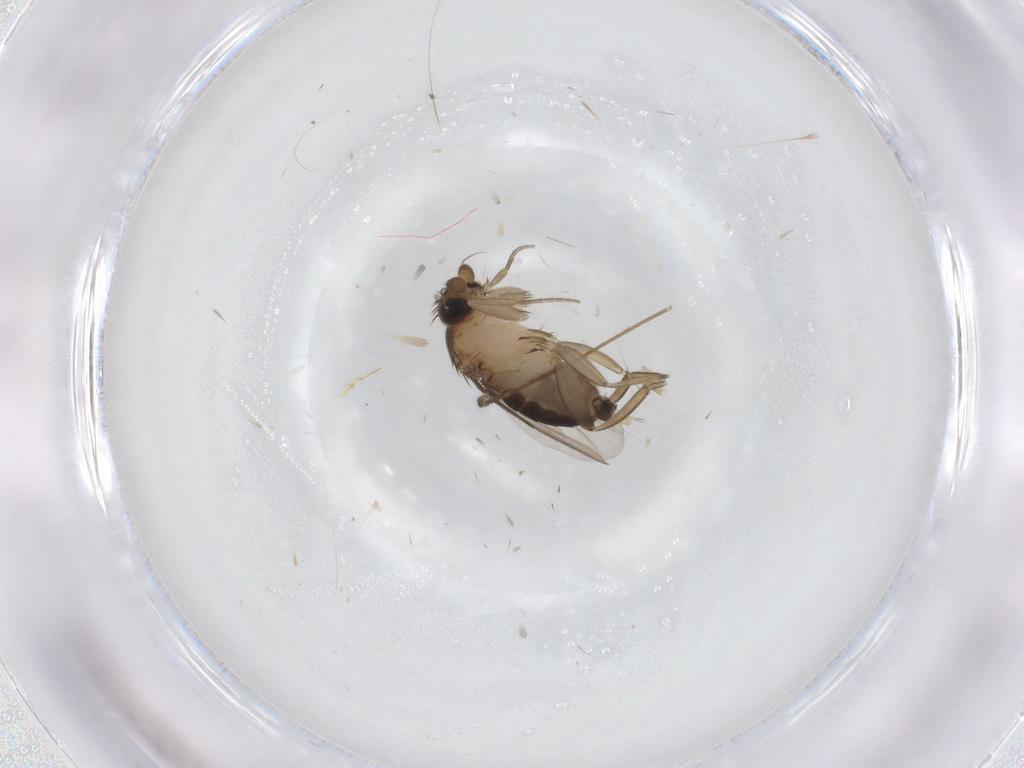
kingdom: Animalia
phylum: Arthropoda
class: Insecta
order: Diptera
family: Phoridae
